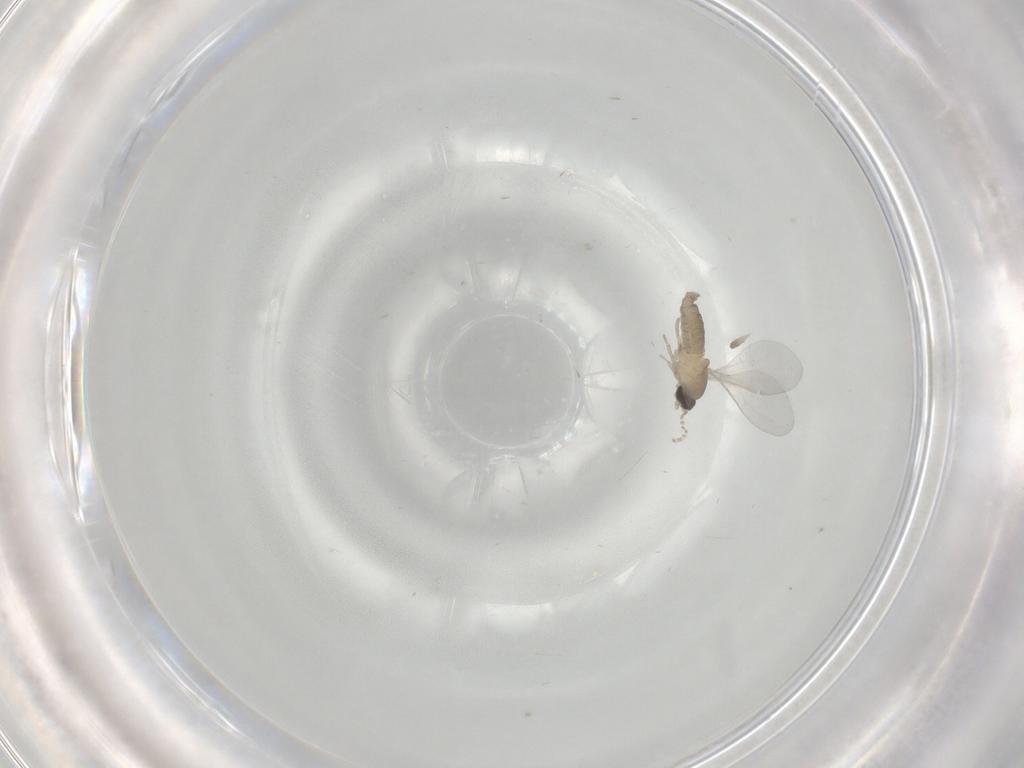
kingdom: Animalia
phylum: Arthropoda
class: Insecta
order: Diptera
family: Cecidomyiidae
